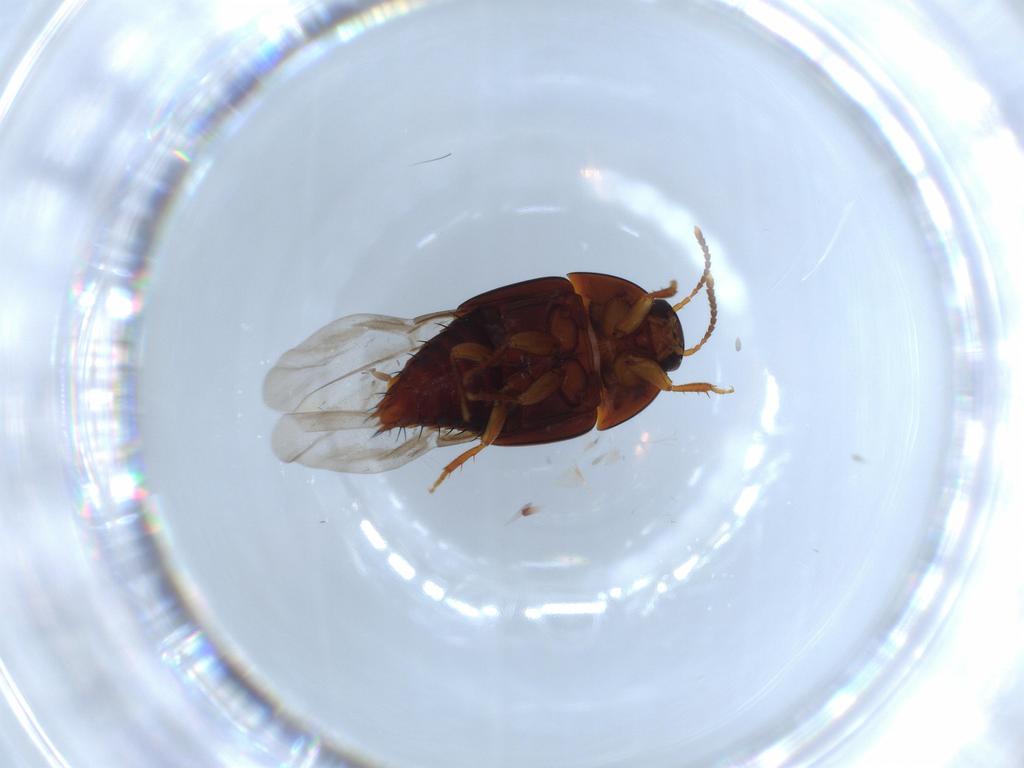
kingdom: Animalia
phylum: Arthropoda
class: Insecta
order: Coleoptera
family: Staphylinidae
